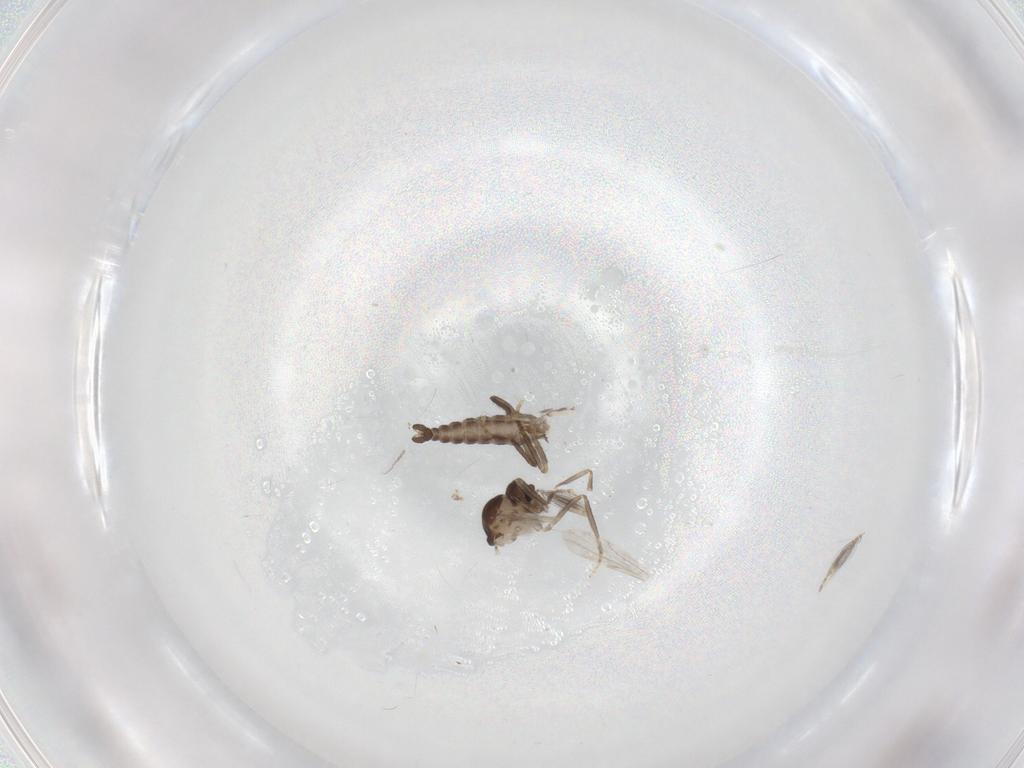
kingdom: Animalia
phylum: Arthropoda
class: Insecta
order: Diptera
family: Ceratopogonidae
